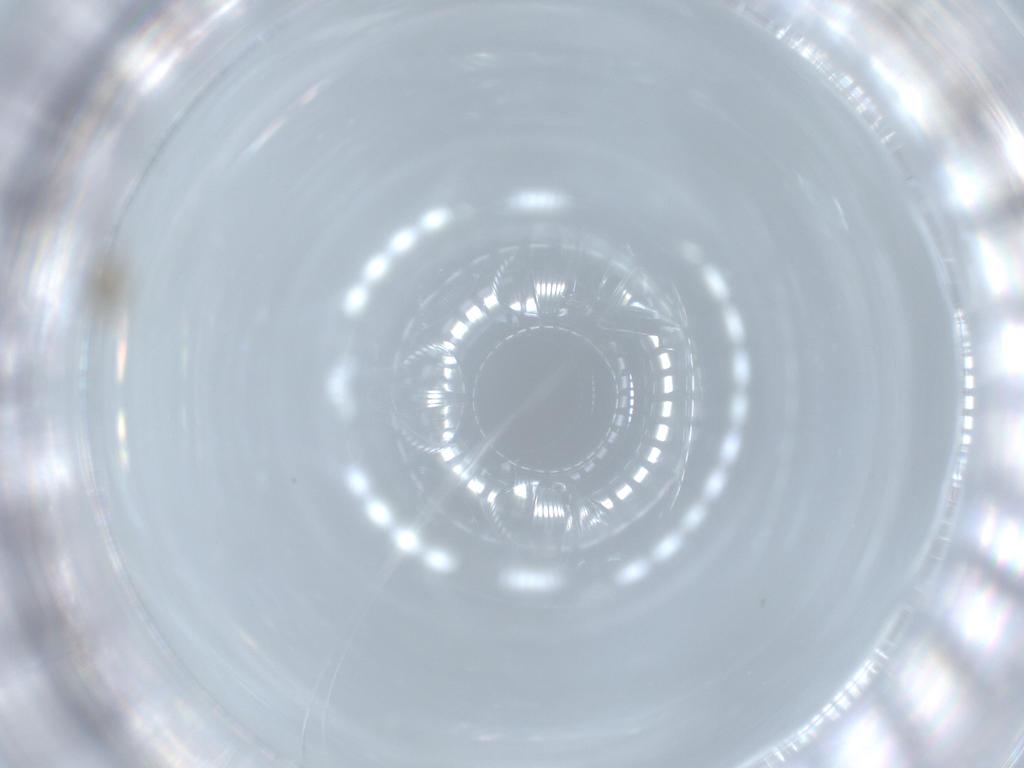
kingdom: Animalia
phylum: Arthropoda
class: Insecta
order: Diptera
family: Cecidomyiidae
